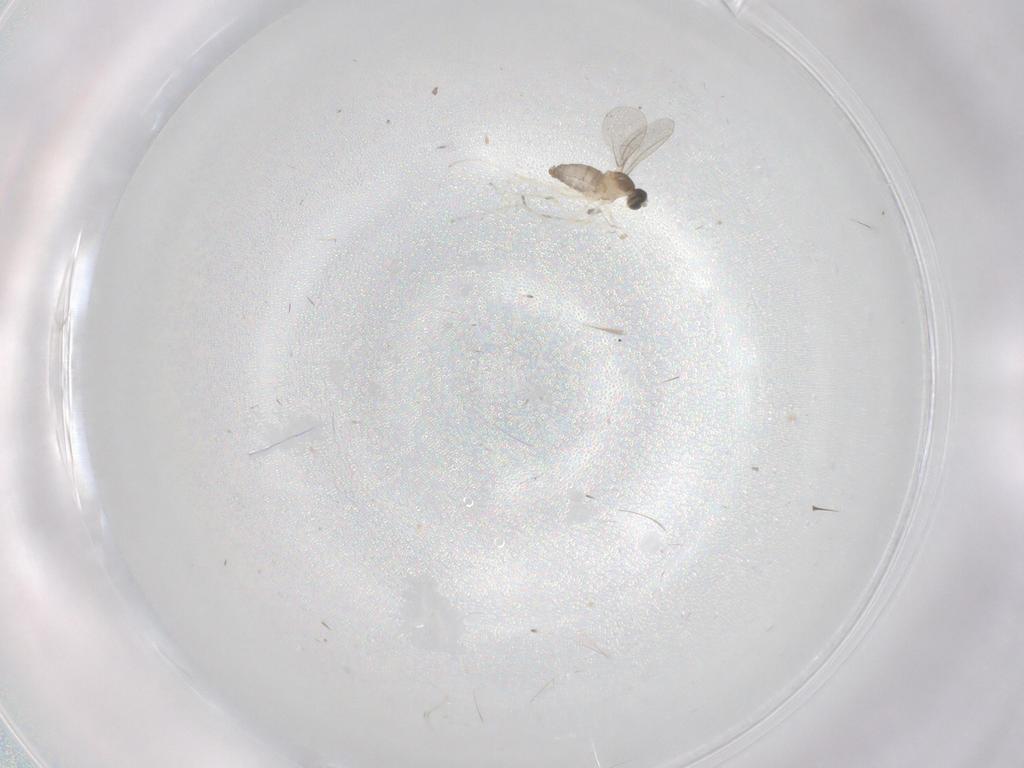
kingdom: Animalia
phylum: Arthropoda
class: Insecta
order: Diptera
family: Cecidomyiidae
